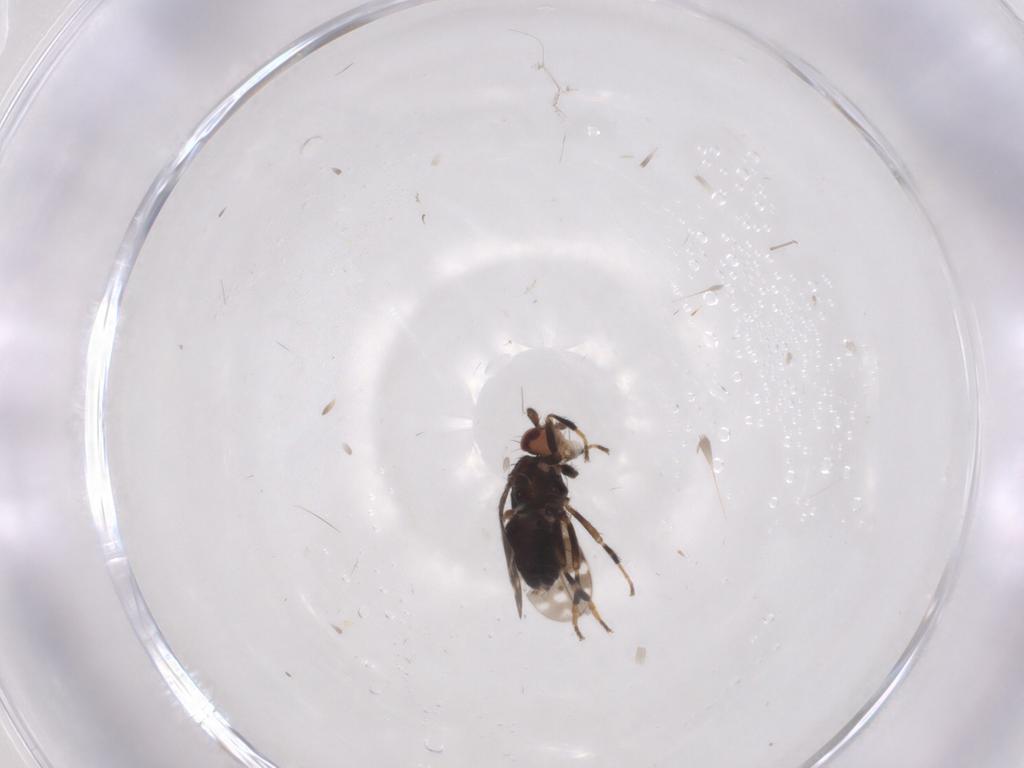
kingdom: Animalia
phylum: Arthropoda
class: Insecta
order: Diptera
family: Sphaeroceridae
